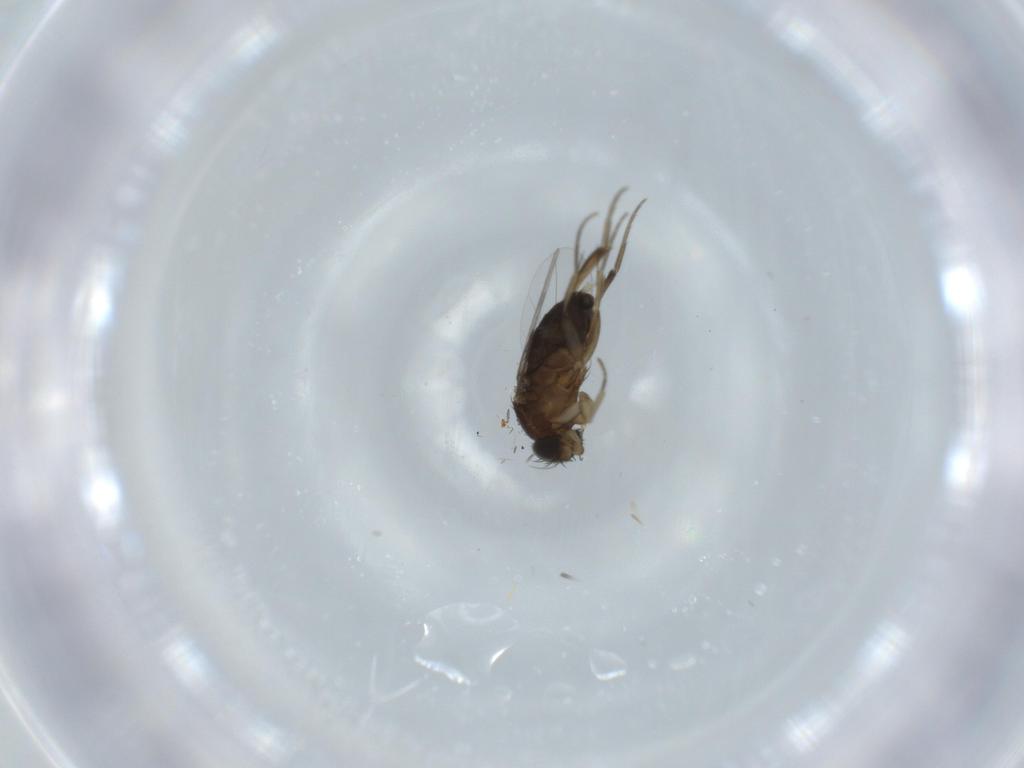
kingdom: Animalia
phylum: Arthropoda
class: Insecta
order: Diptera
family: Phoridae
